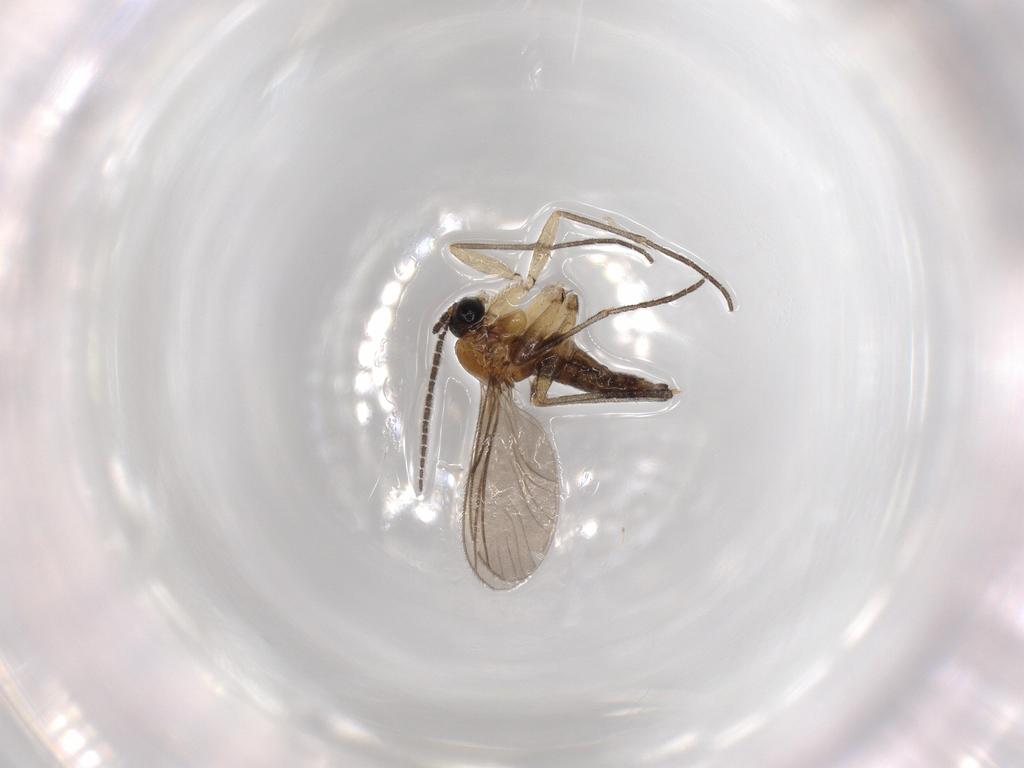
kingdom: Animalia
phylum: Arthropoda
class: Insecta
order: Diptera
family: Sciaridae
